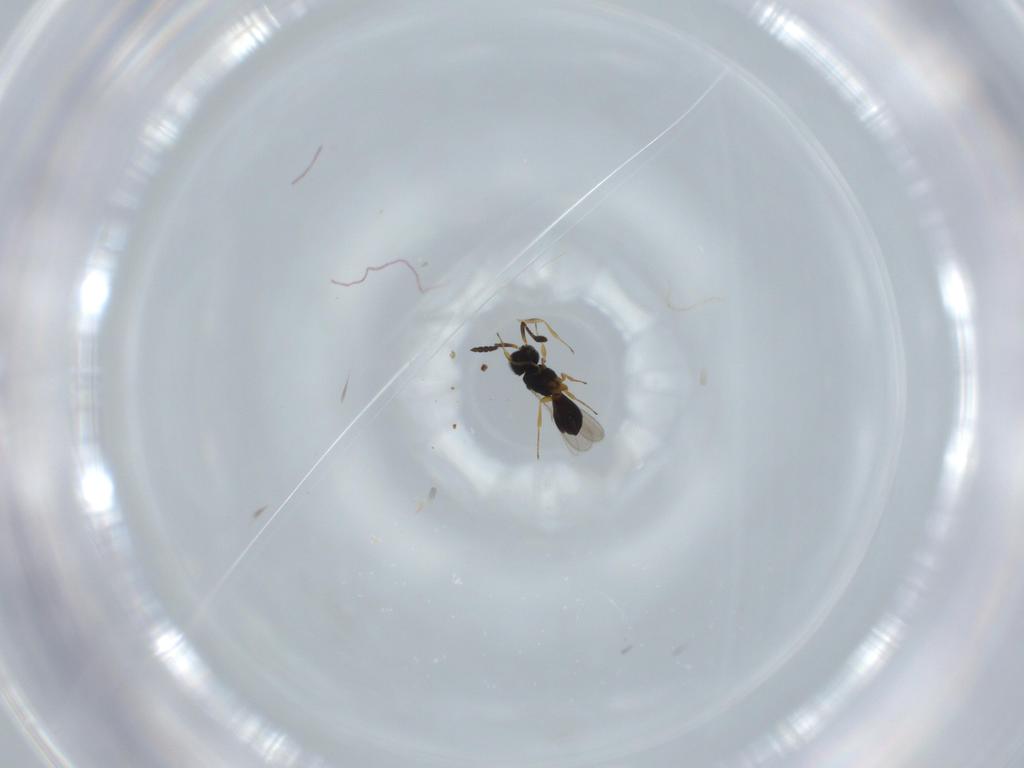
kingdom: Animalia
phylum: Arthropoda
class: Insecta
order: Hymenoptera
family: Scelionidae
